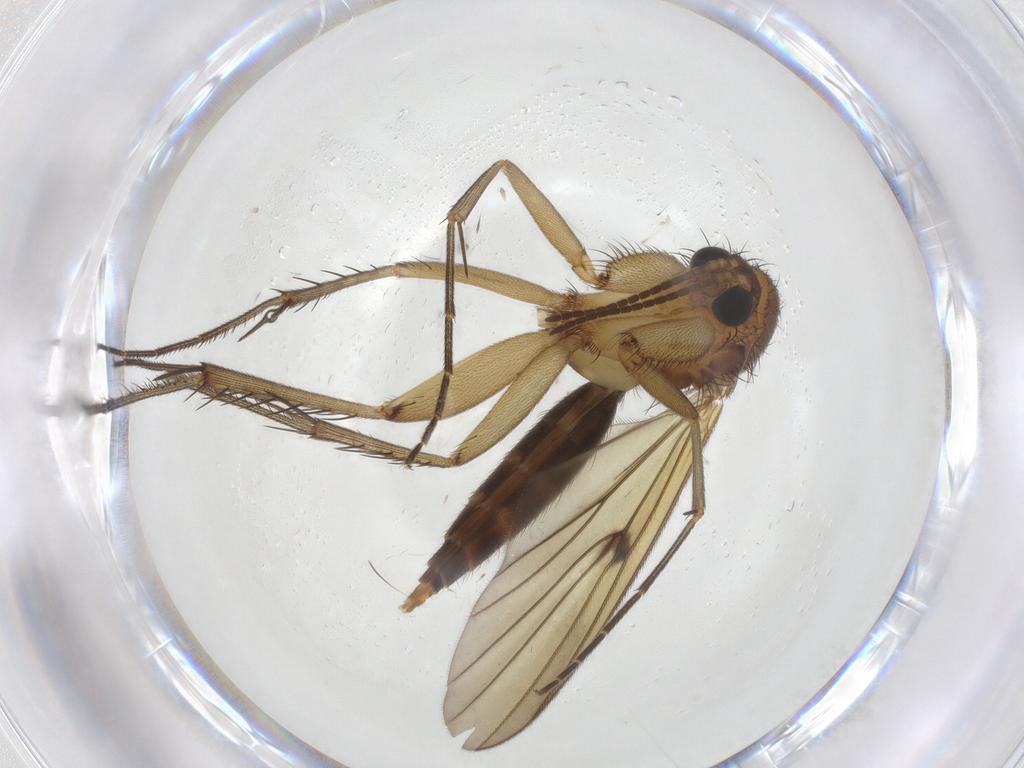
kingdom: Animalia
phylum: Arthropoda
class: Insecta
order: Diptera
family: Mycetophilidae
